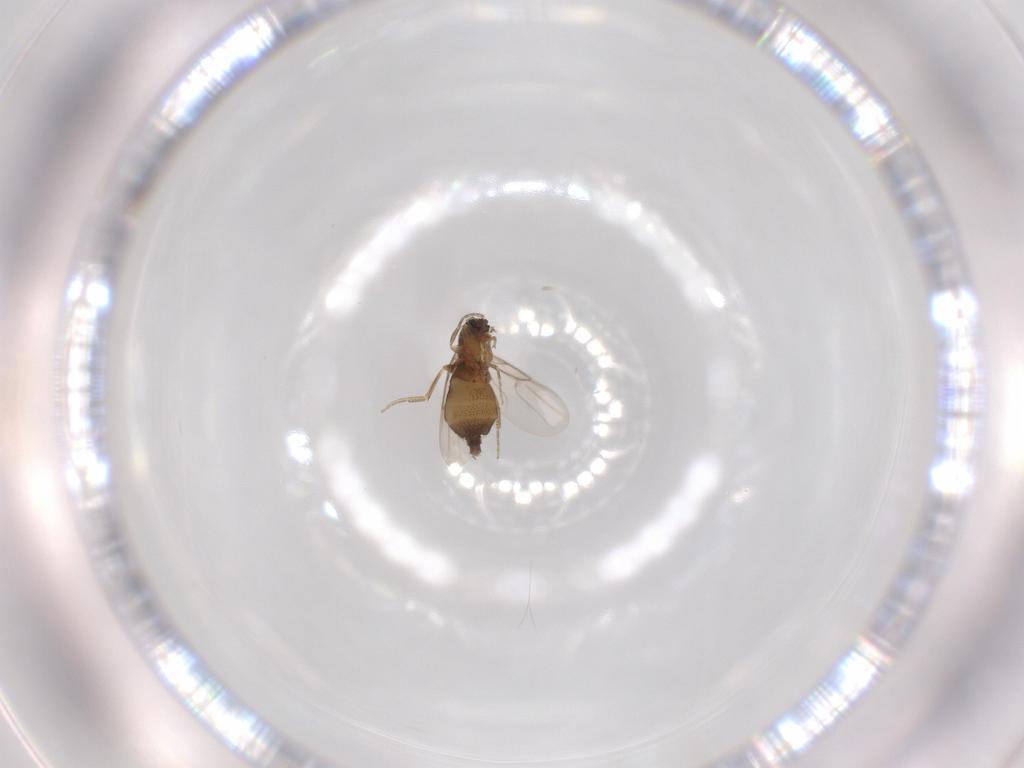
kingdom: Animalia
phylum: Arthropoda
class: Insecta
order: Diptera
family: Phoridae
